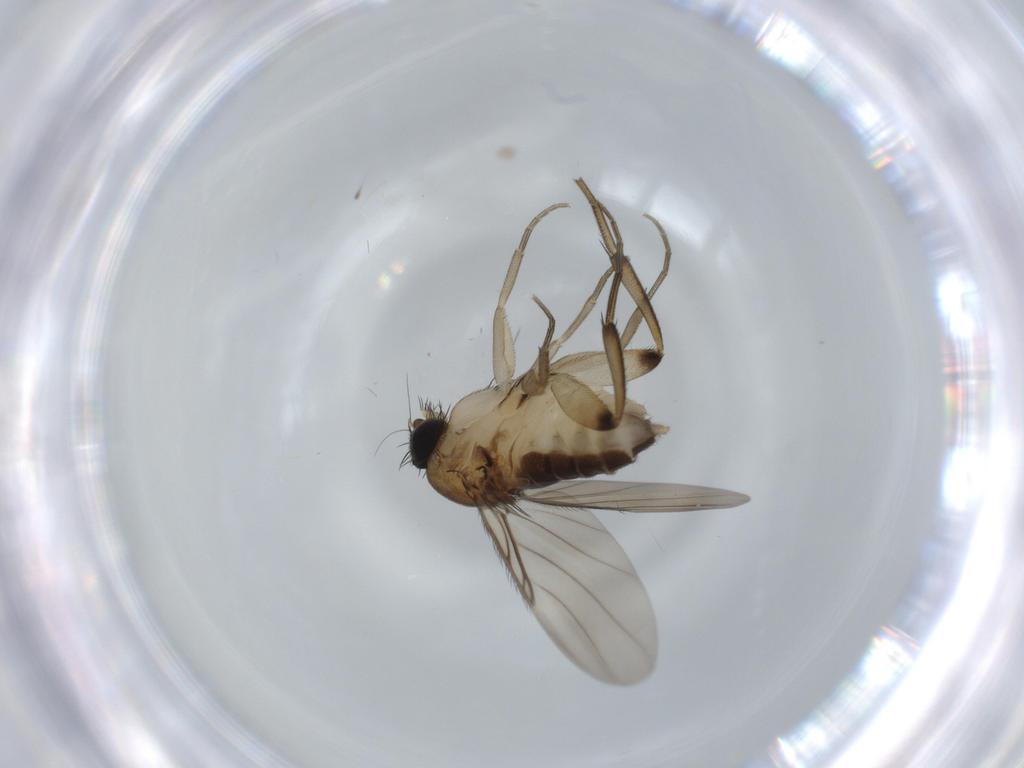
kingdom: Animalia
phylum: Arthropoda
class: Insecta
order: Diptera
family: Phoridae
